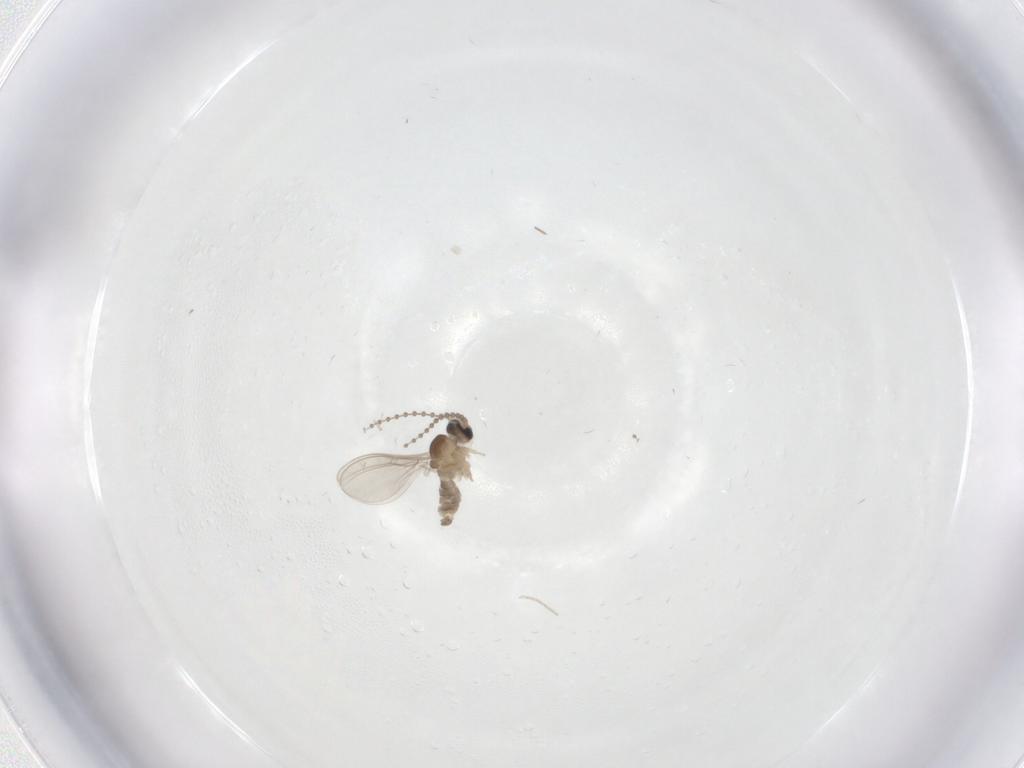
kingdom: Animalia
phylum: Arthropoda
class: Insecta
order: Diptera
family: Cecidomyiidae
